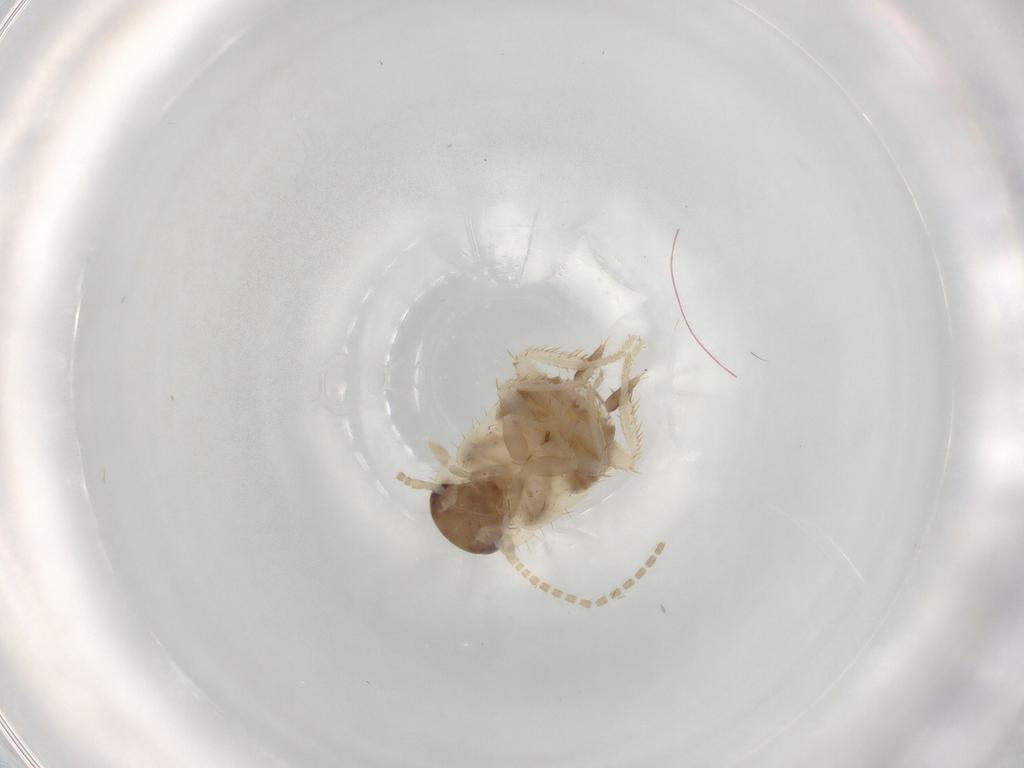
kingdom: Animalia
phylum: Arthropoda
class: Insecta
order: Blattodea
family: Ectobiidae
